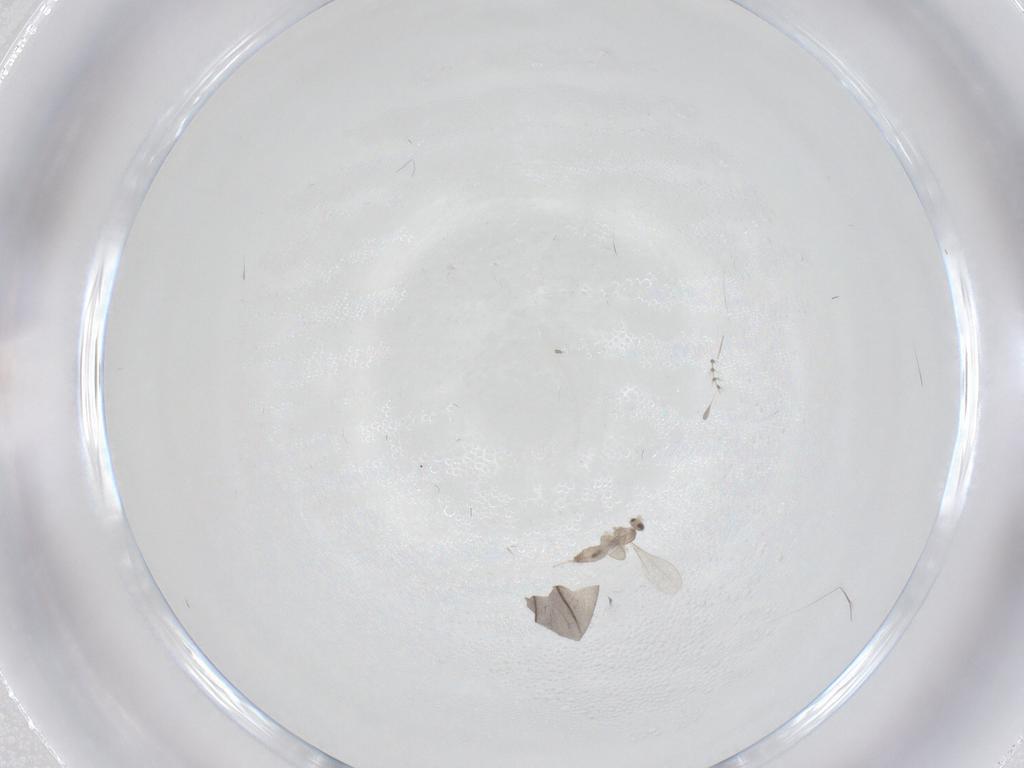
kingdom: Animalia
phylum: Arthropoda
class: Insecta
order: Diptera
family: Cecidomyiidae
